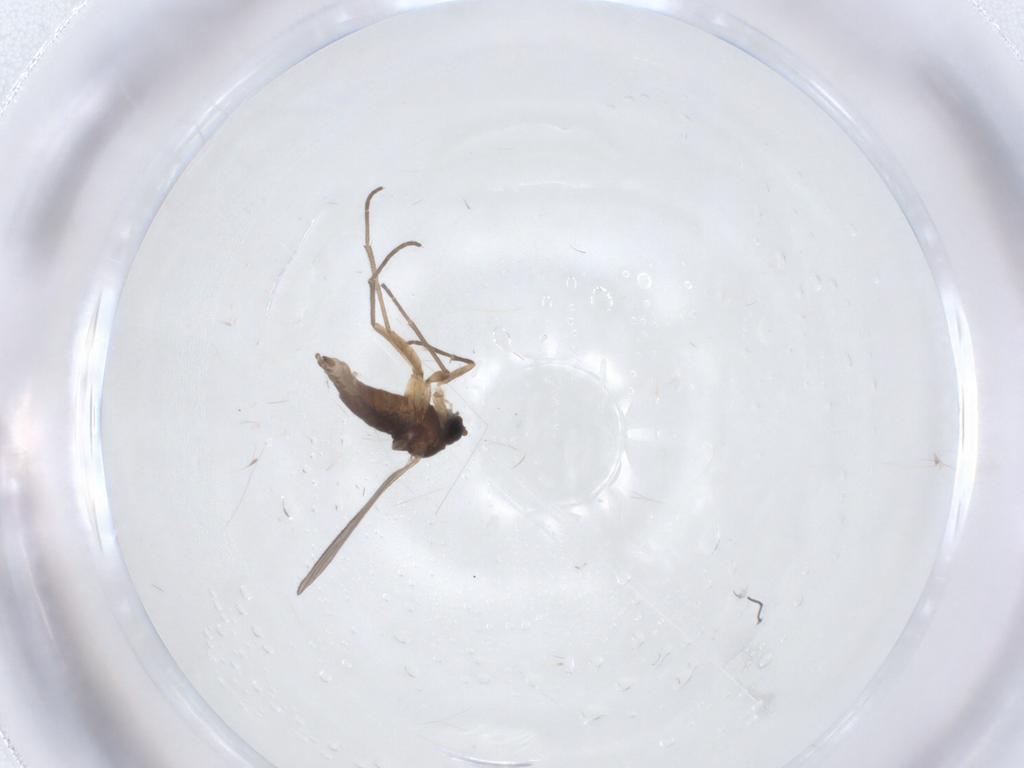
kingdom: Animalia
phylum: Arthropoda
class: Insecta
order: Diptera
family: Sciaridae
